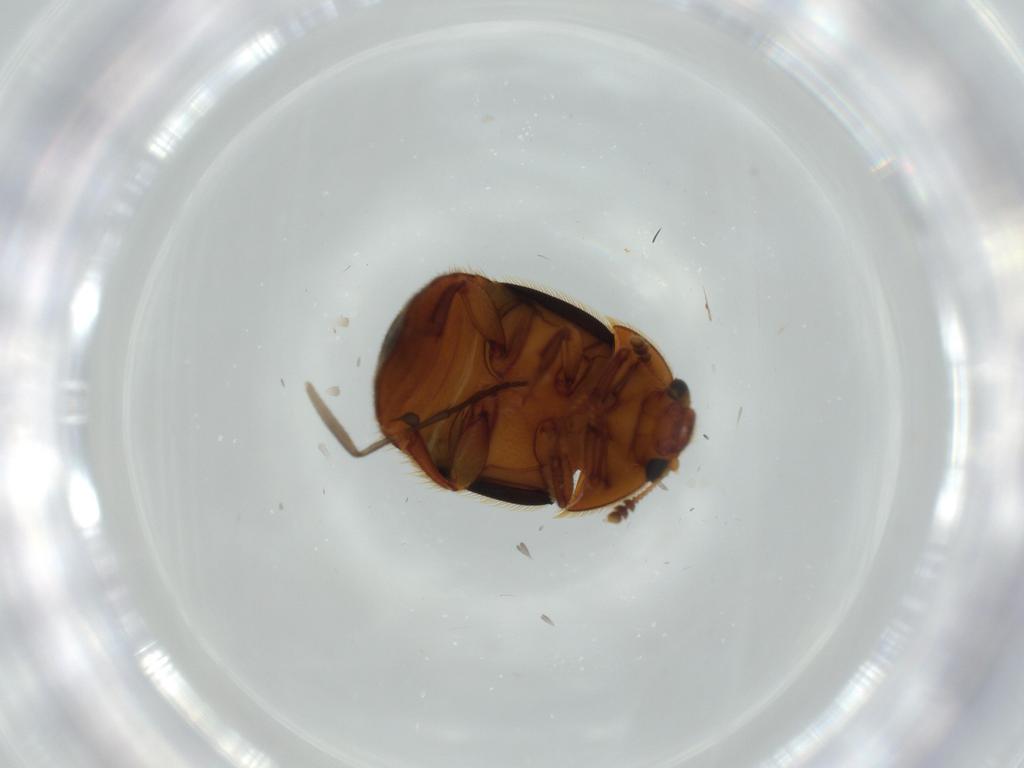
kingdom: Animalia
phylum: Arthropoda
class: Insecta
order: Coleoptera
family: Nitidulidae
